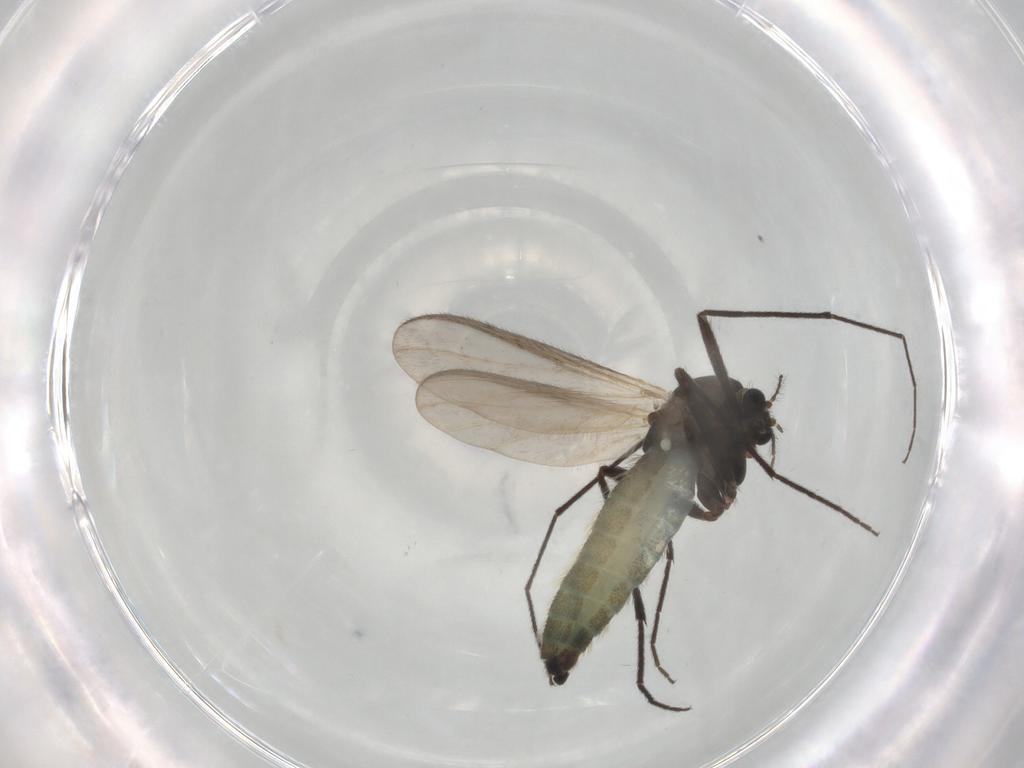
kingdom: Animalia
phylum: Arthropoda
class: Insecta
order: Diptera
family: Chironomidae
